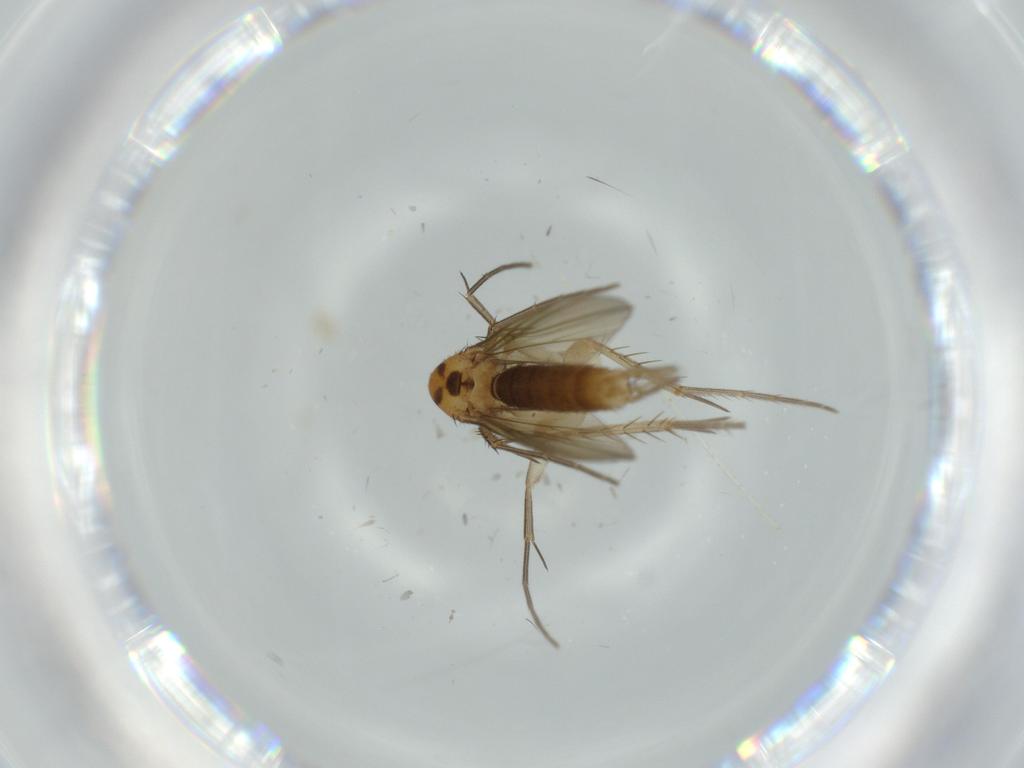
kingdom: Animalia
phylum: Arthropoda
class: Insecta
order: Diptera
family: Mycetophilidae
